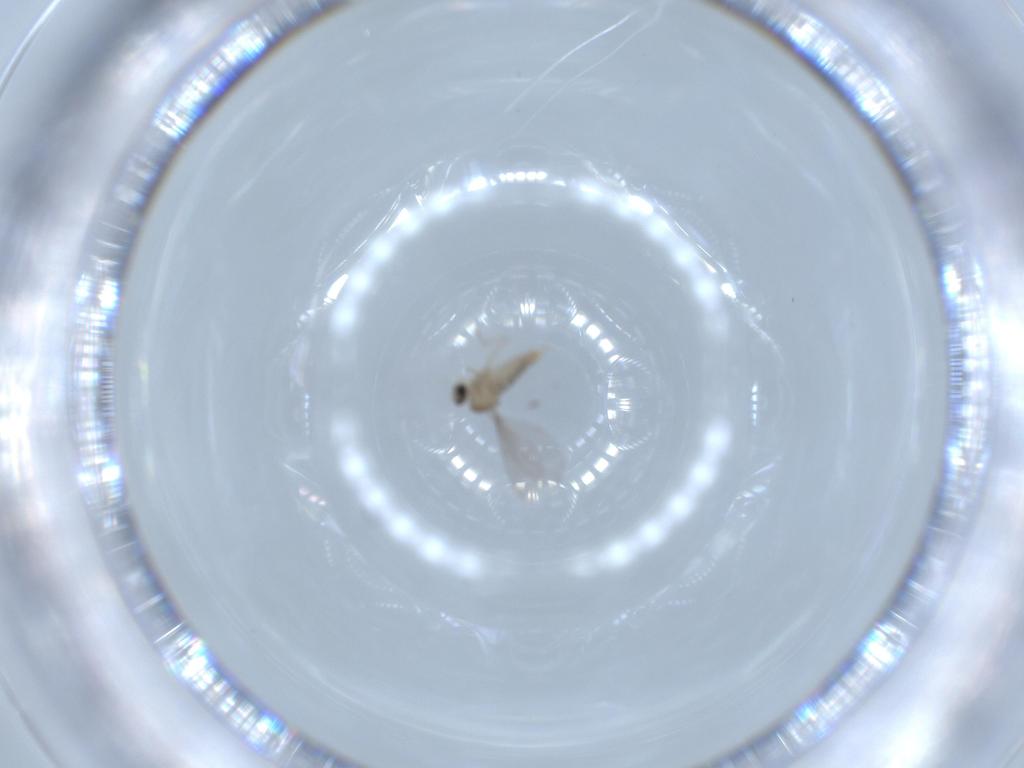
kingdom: Animalia
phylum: Arthropoda
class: Insecta
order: Diptera
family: Cecidomyiidae
